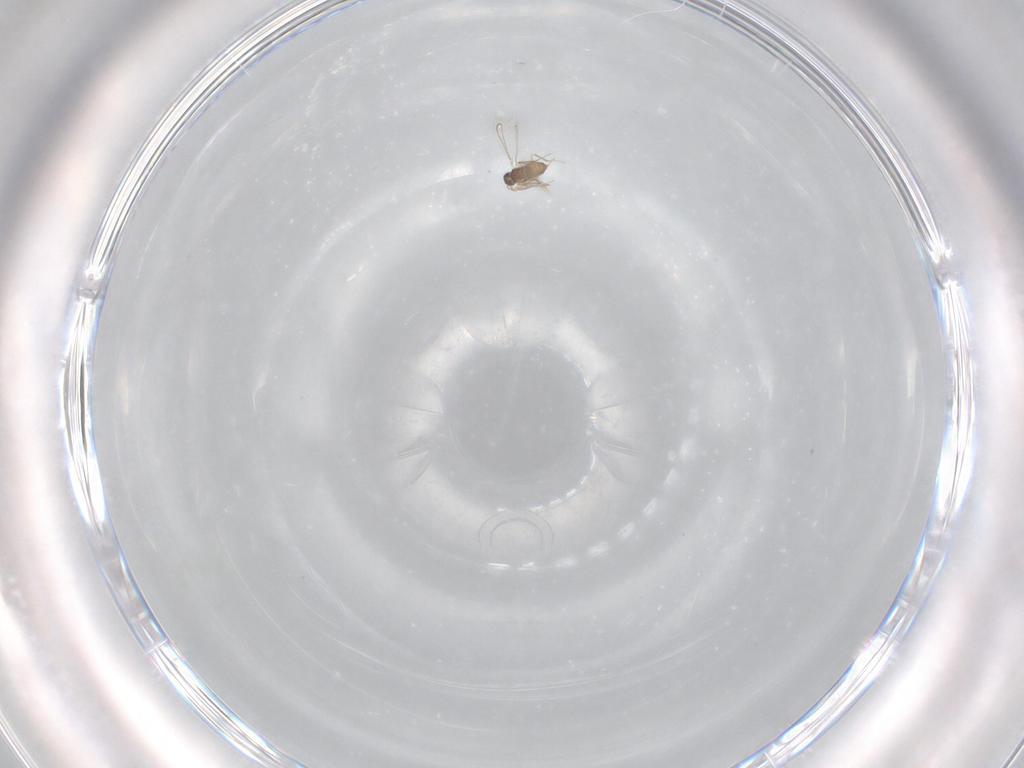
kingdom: Animalia
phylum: Arthropoda
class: Insecta
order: Hymenoptera
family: Mymaridae
